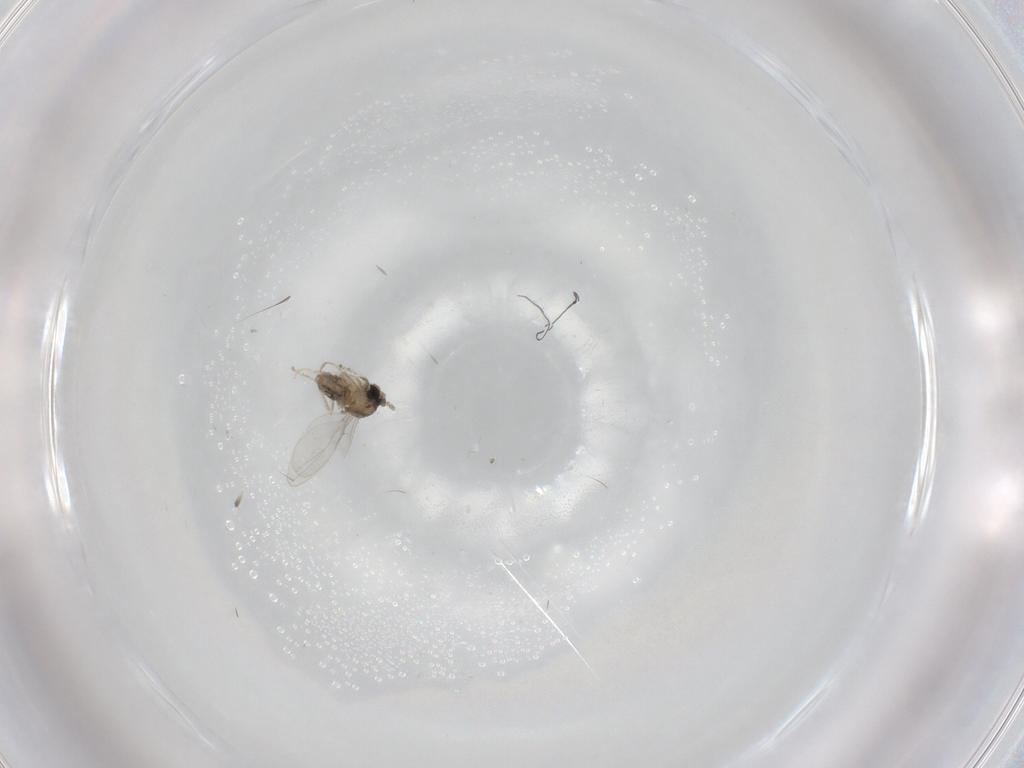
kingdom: Animalia
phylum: Arthropoda
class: Insecta
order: Diptera
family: Cecidomyiidae
